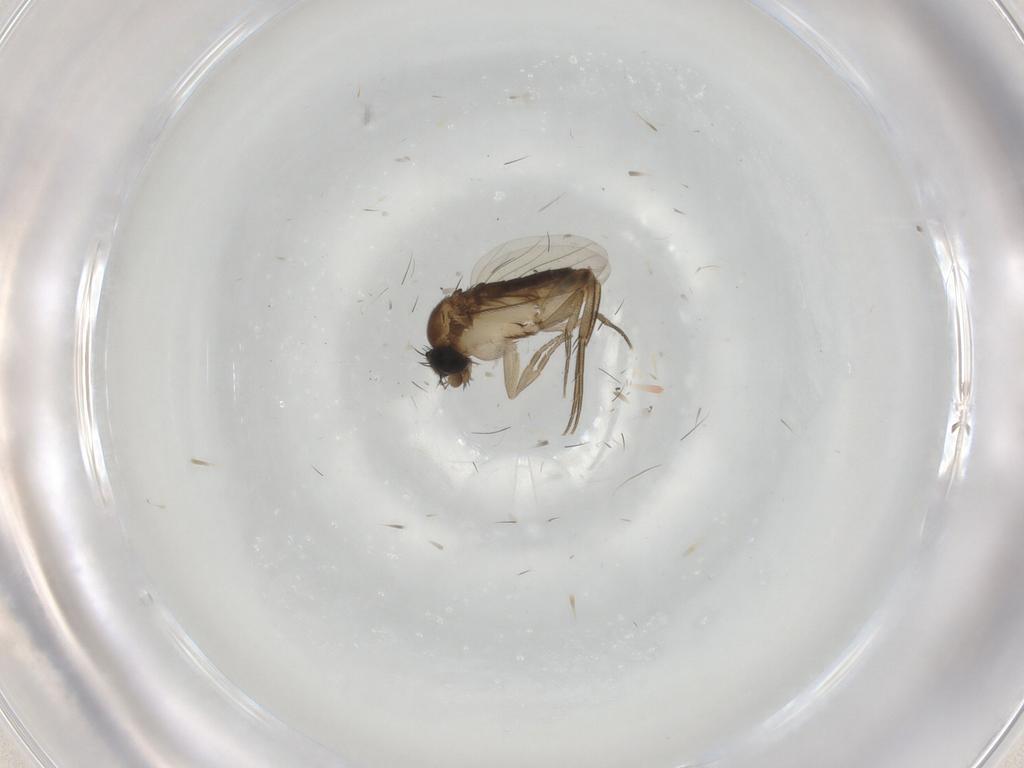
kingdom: Animalia
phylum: Arthropoda
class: Insecta
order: Diptera
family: Phoridae
